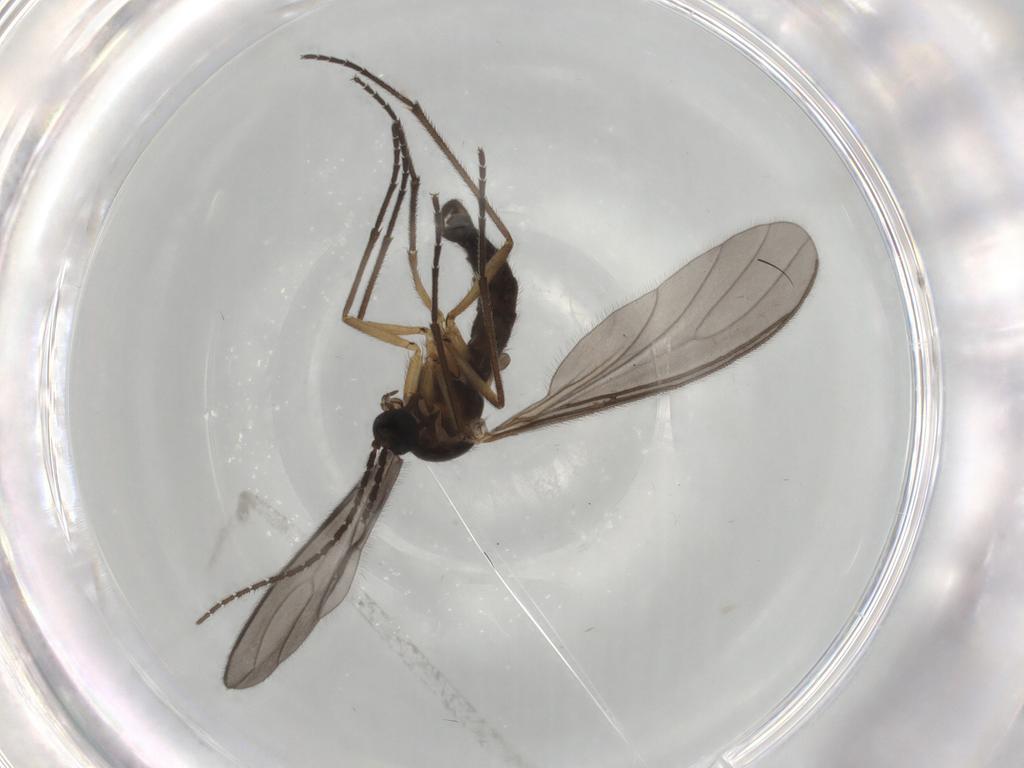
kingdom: Animalia
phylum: Arthropoda
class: Insecta
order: Diptera
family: Sciaridae
